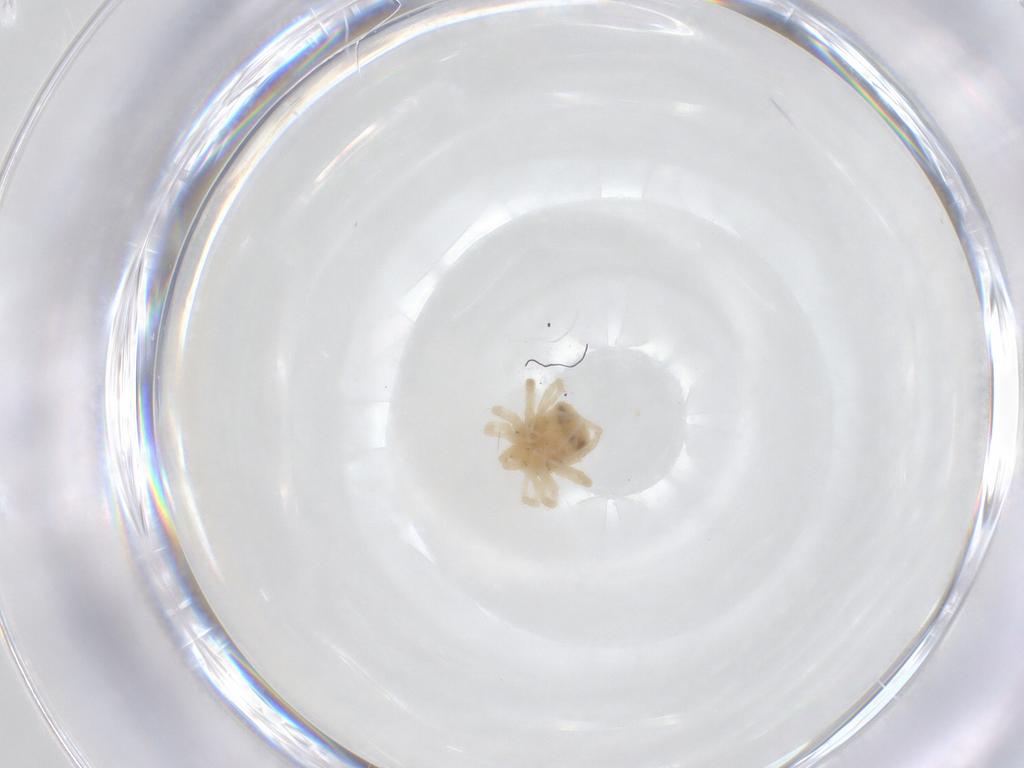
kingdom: Animalia
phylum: Arthropoda
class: Arachnida
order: Trombidiformes
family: Anystidae
